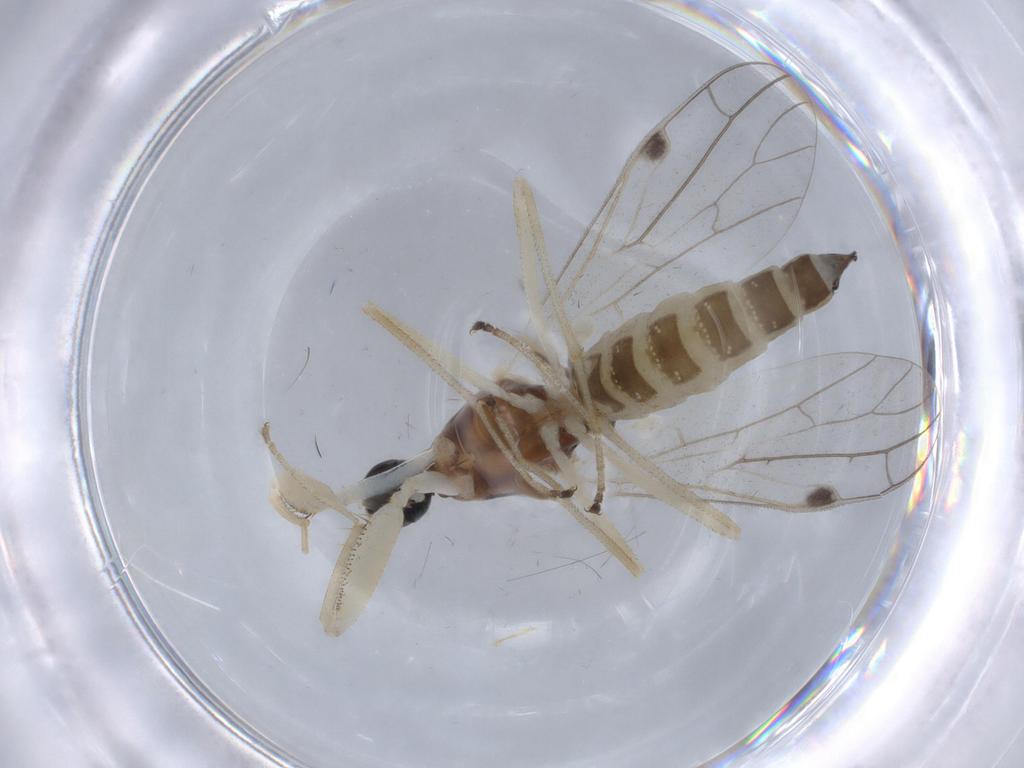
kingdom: Animalia
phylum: Arthropoda
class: Insecta
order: Diptera
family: Empididae
